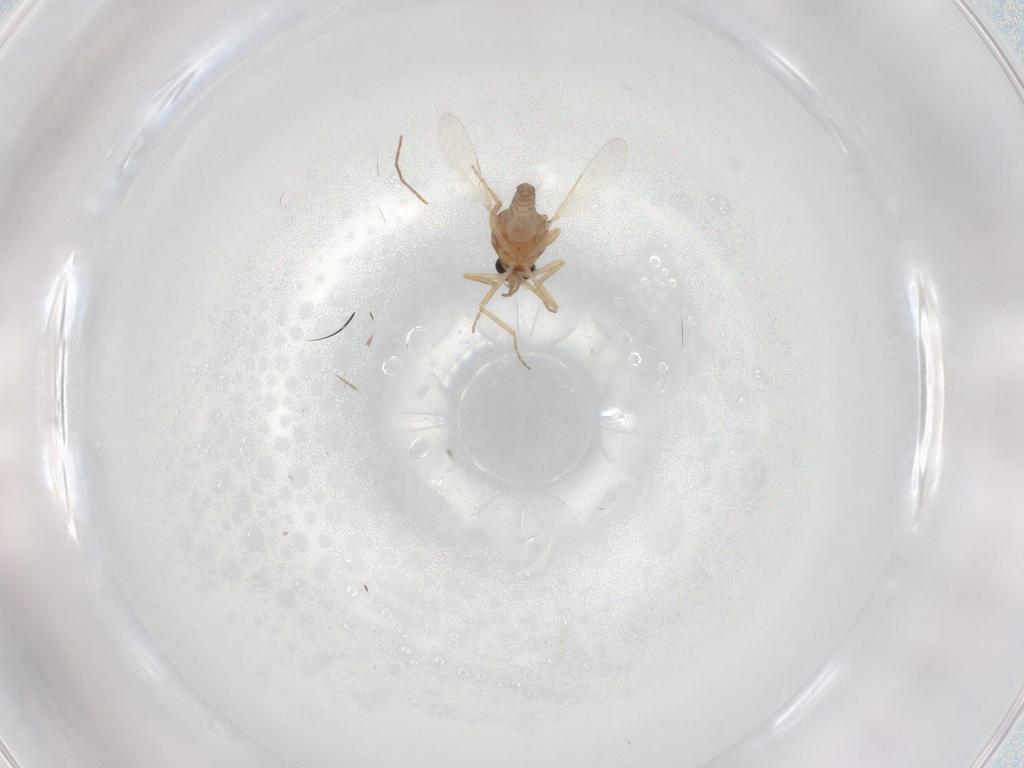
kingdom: Animalia
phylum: Arthropoda
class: Insecta
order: Diptera
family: Ceratopogonidae
